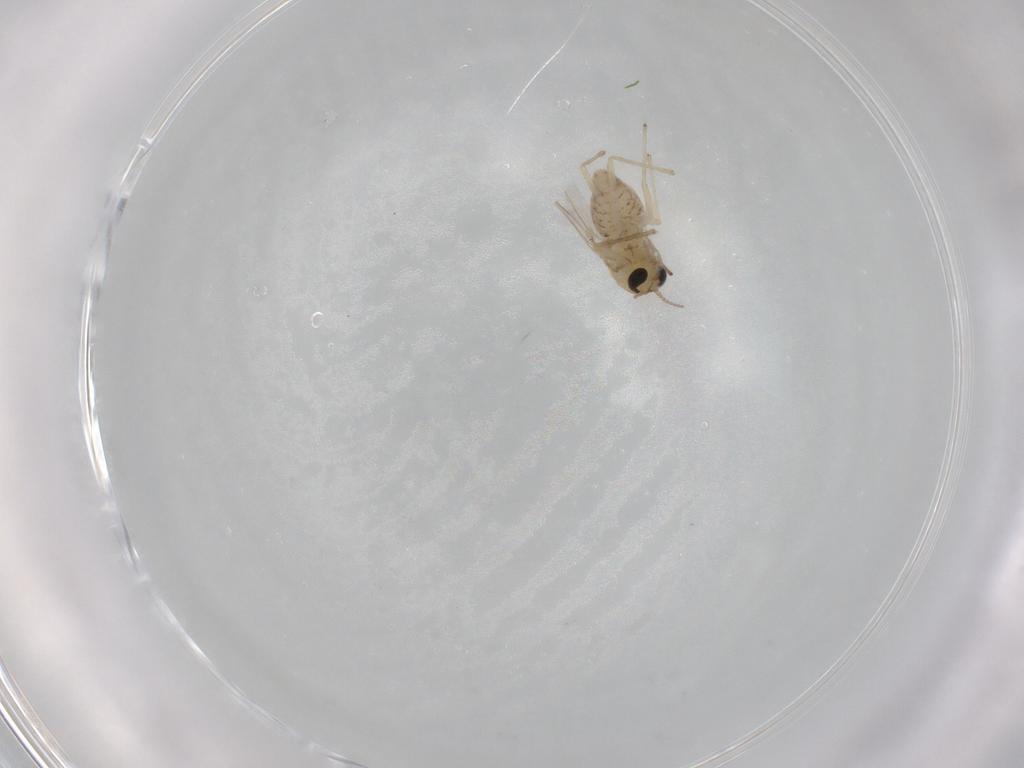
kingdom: Animalia
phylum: Arthropoda
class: Insecta
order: Diptera
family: Chironomidae
